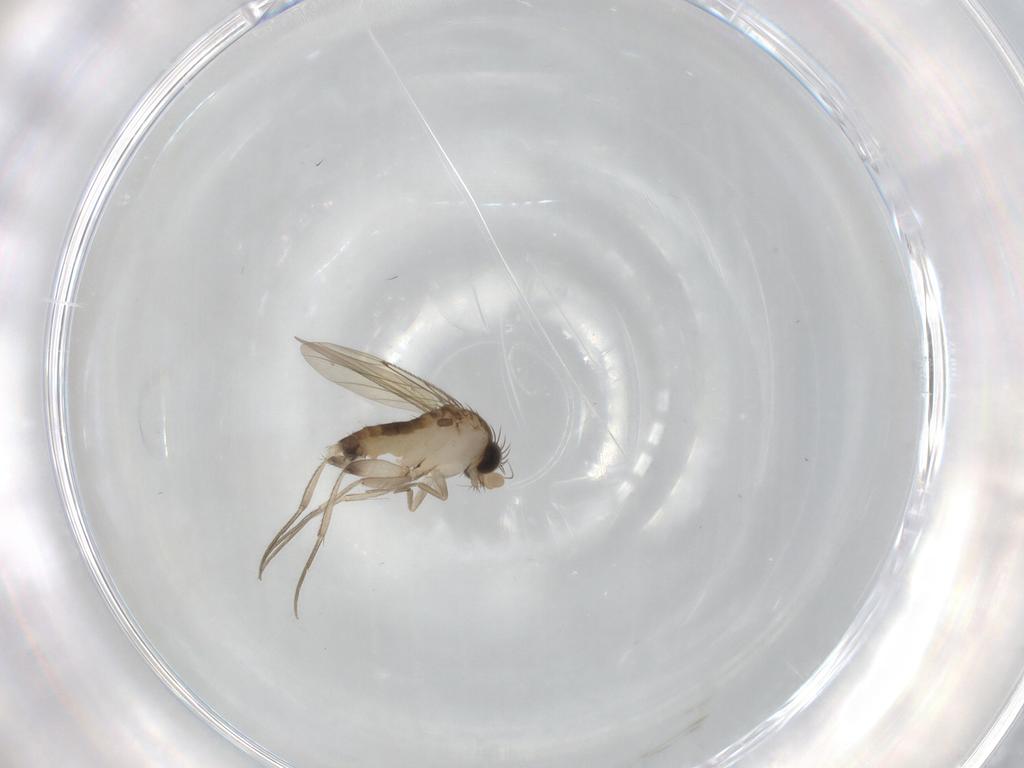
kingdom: Animalia
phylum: Arthropoda
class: Insecta
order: Diptera
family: Phoridae
